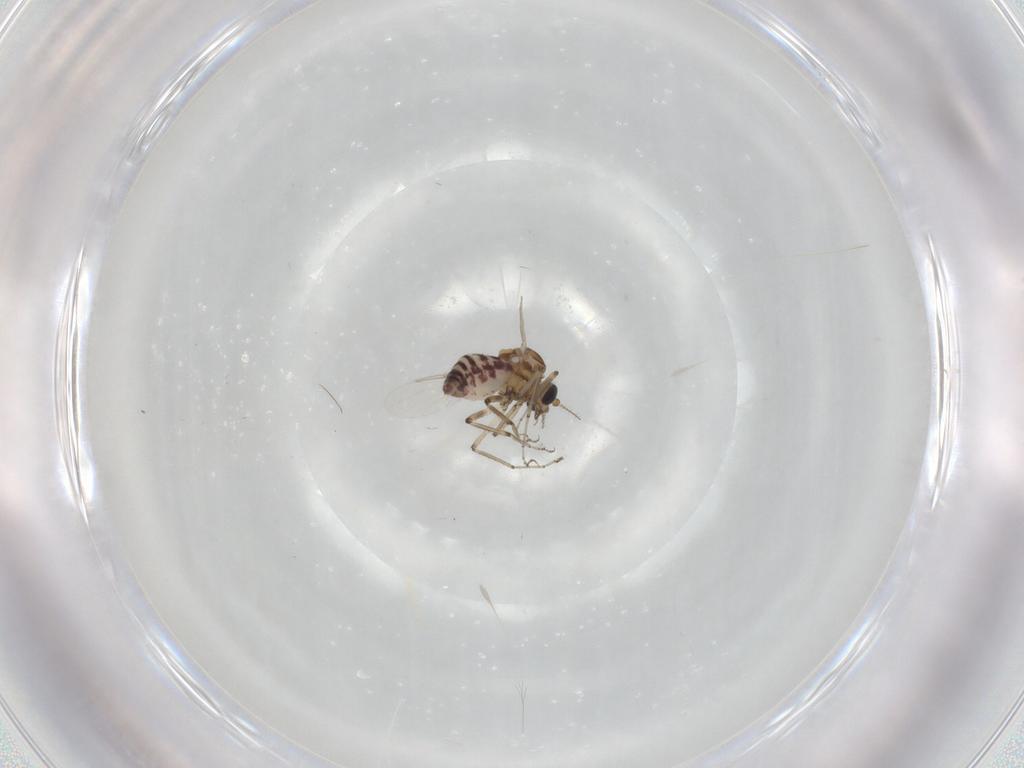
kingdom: Animalia
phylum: Arthropoda
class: Insecta
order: Diptera
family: Ceratopogonidae
